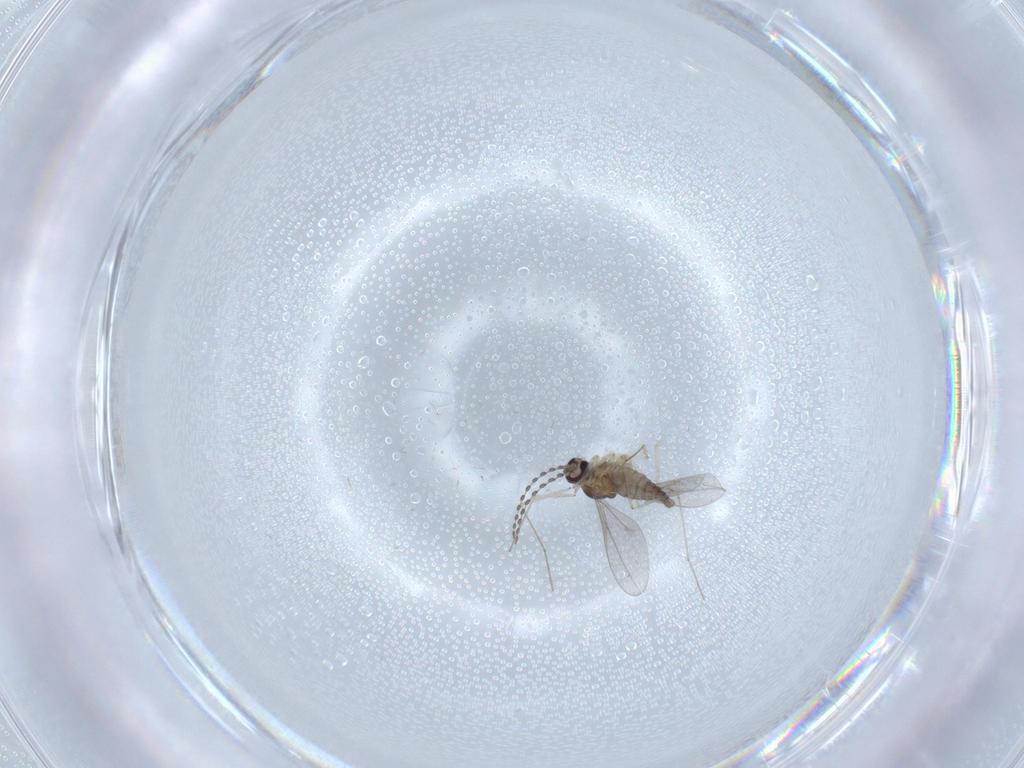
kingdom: Animalia
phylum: Arthropoda
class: Insecta
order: Diptera
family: Cecidomyiidae
